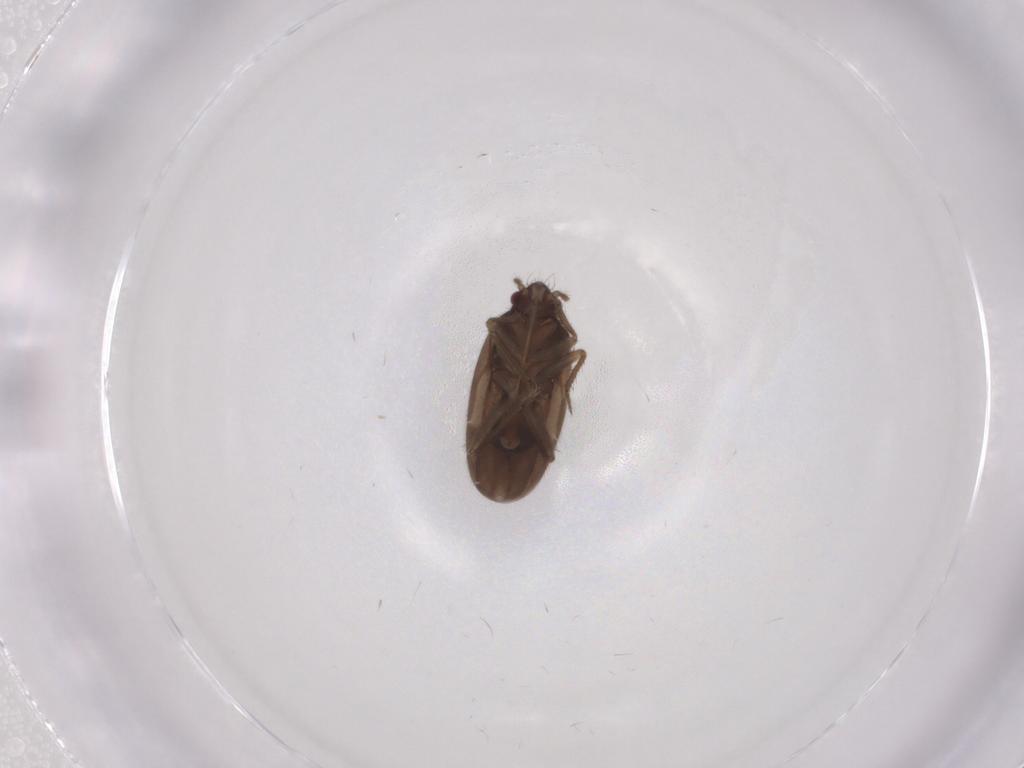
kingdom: Animalia
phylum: Arthropoda
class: Insecta
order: Hemiptera
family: Ceratocombidae
